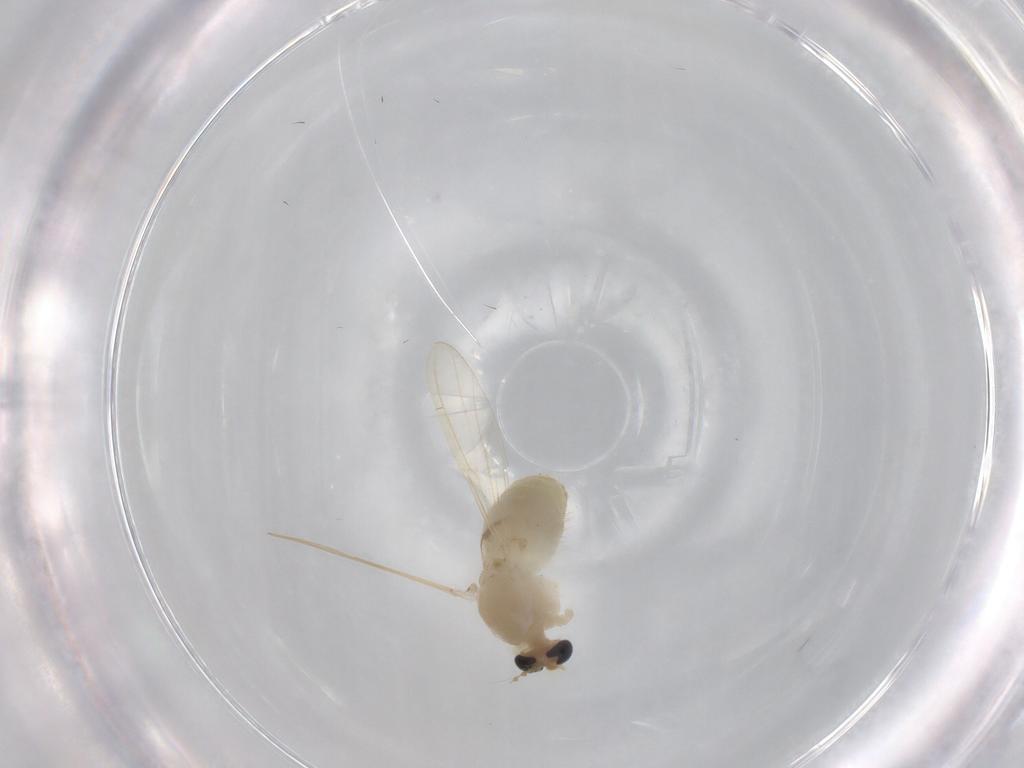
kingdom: Animalia
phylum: Arthropoda
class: Insecta
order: Diptera
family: Chironomidae
